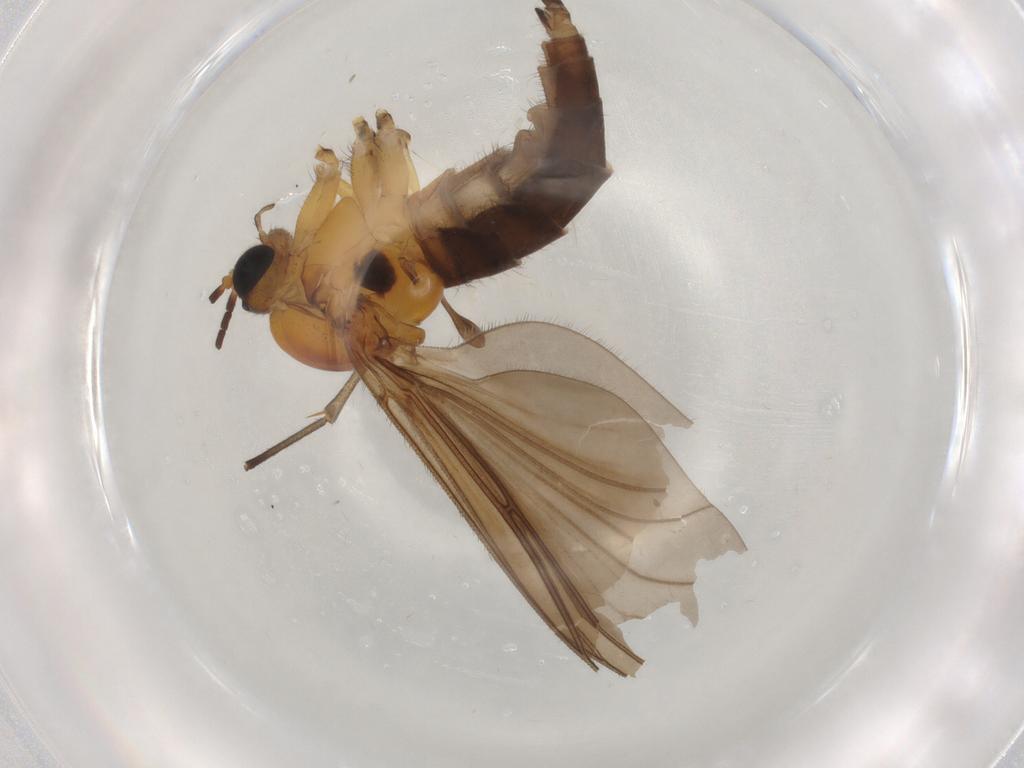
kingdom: Animalia
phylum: Arthropoda
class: Insecta
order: Diptera
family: Sciaridae
